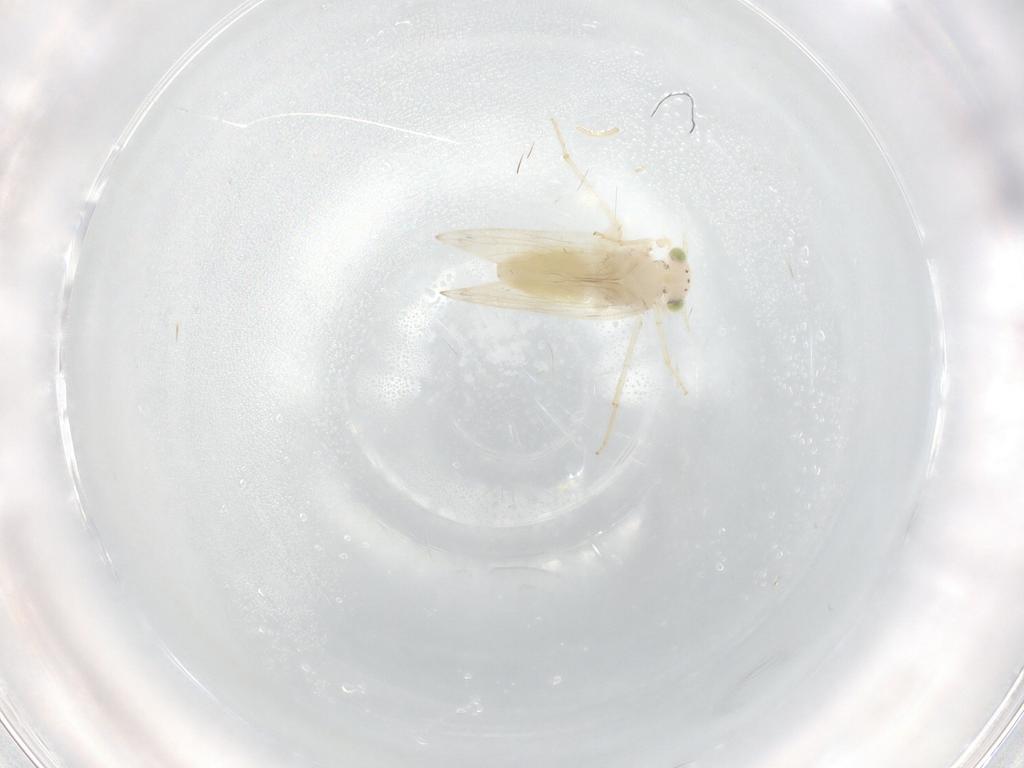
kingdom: Animalia
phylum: Arthropoda
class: Insecta
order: Psocodea
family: Lepidopsocidae
